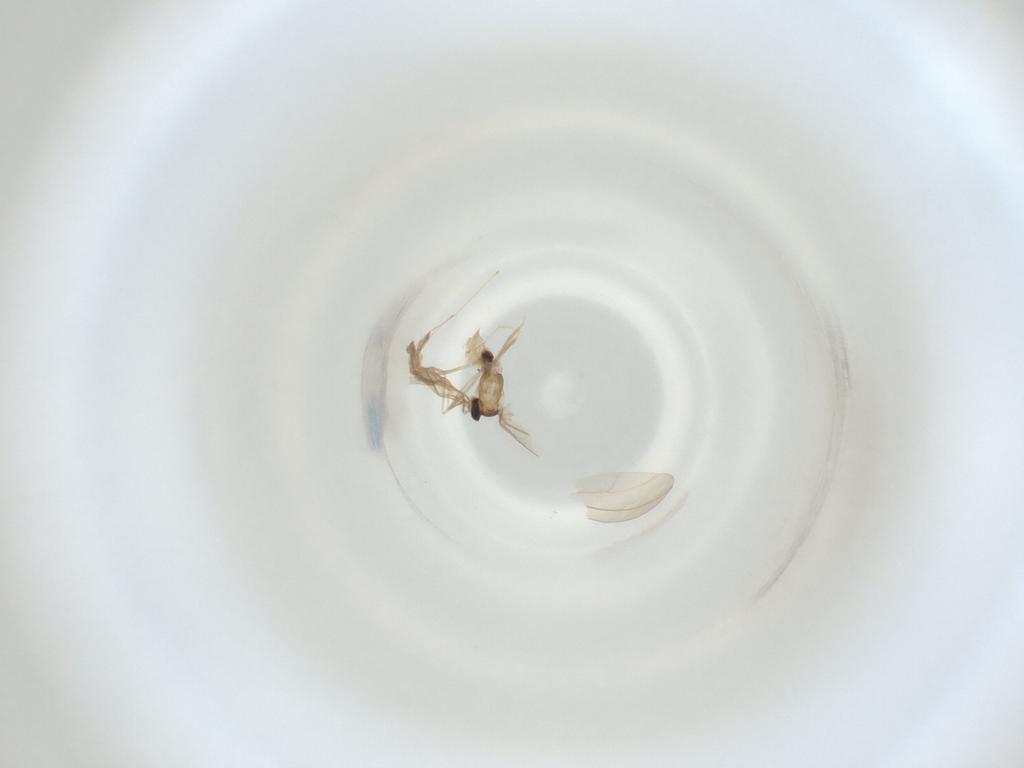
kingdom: Animalia
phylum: Arthropoda
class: Insecta
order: Diptera
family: Cecidomyiidae
